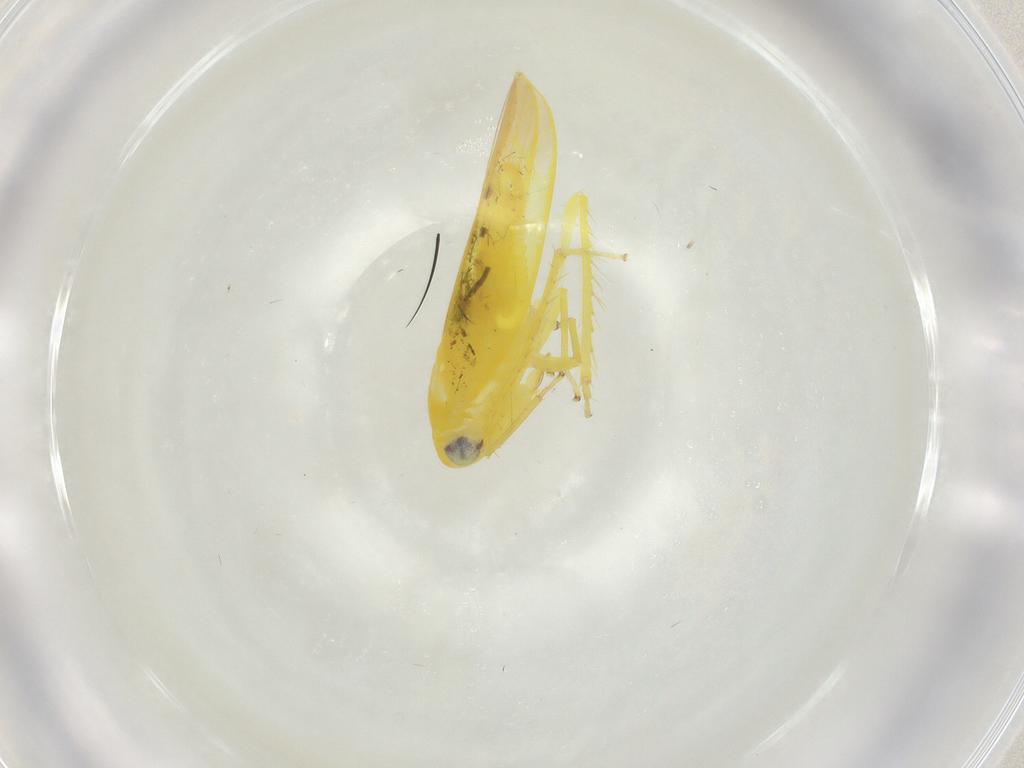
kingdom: Animalia
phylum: Arthropoda
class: Insecta
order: Hemiptera
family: Cicadellidae
